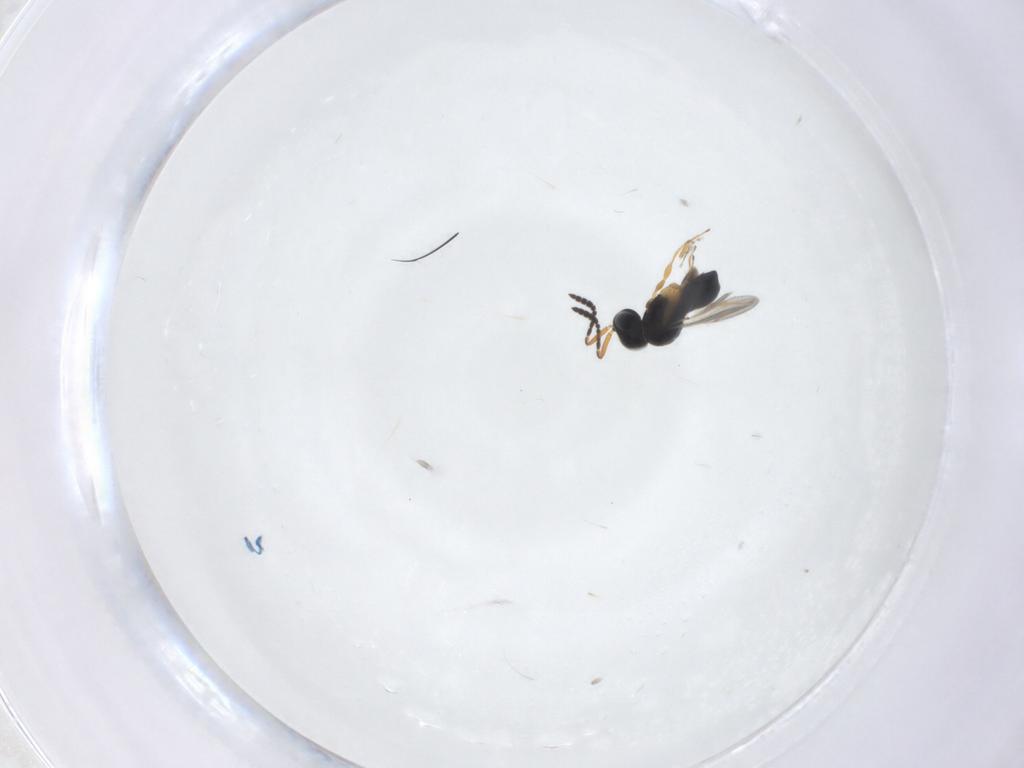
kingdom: Animalia
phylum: Arthropoda
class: Insecta
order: Hymenoptera
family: Scelionidae
